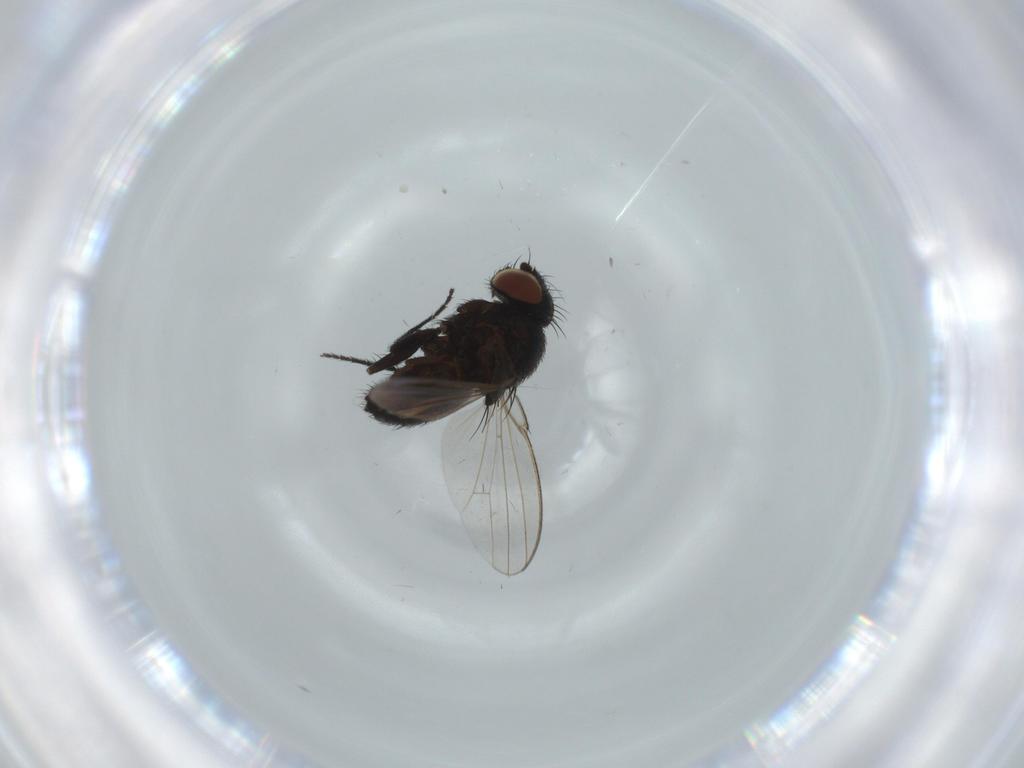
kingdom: Animalia
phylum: Arthropoda
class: Insecta
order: Diptera
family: Milichiidae
